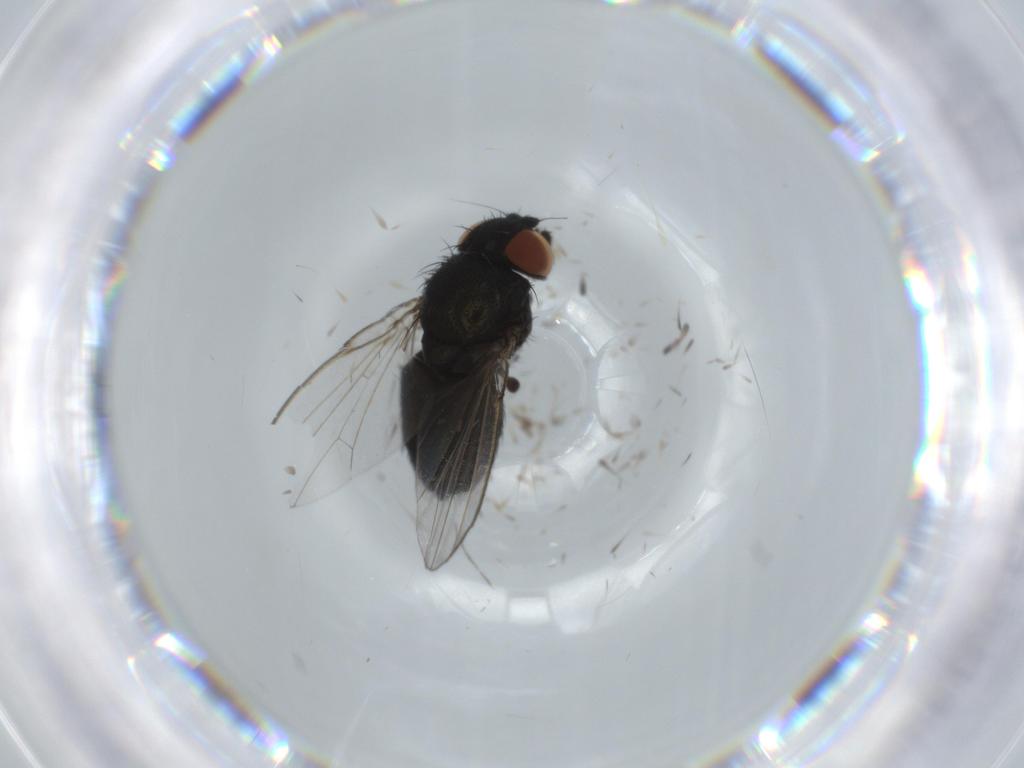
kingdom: Animalia
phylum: Arthropoda
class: Insecta
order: Diptera
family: Milichiidae
